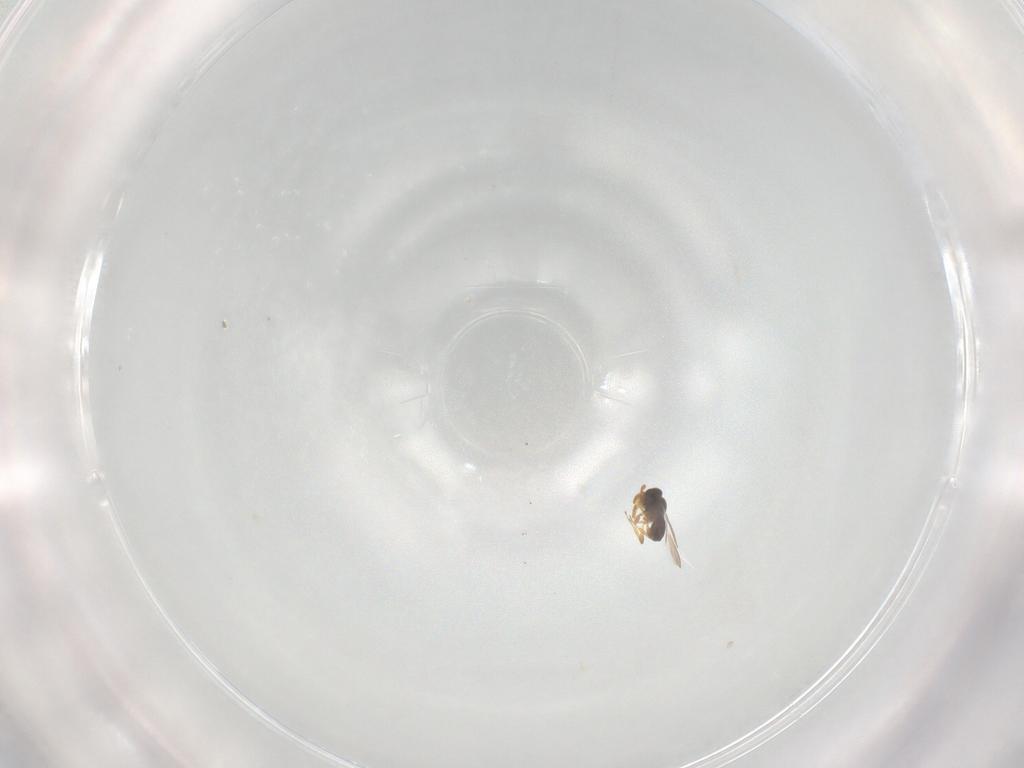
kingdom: Animalia
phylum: Arthropoda
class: Insecta
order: Hymenoptera
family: Platygastridae
